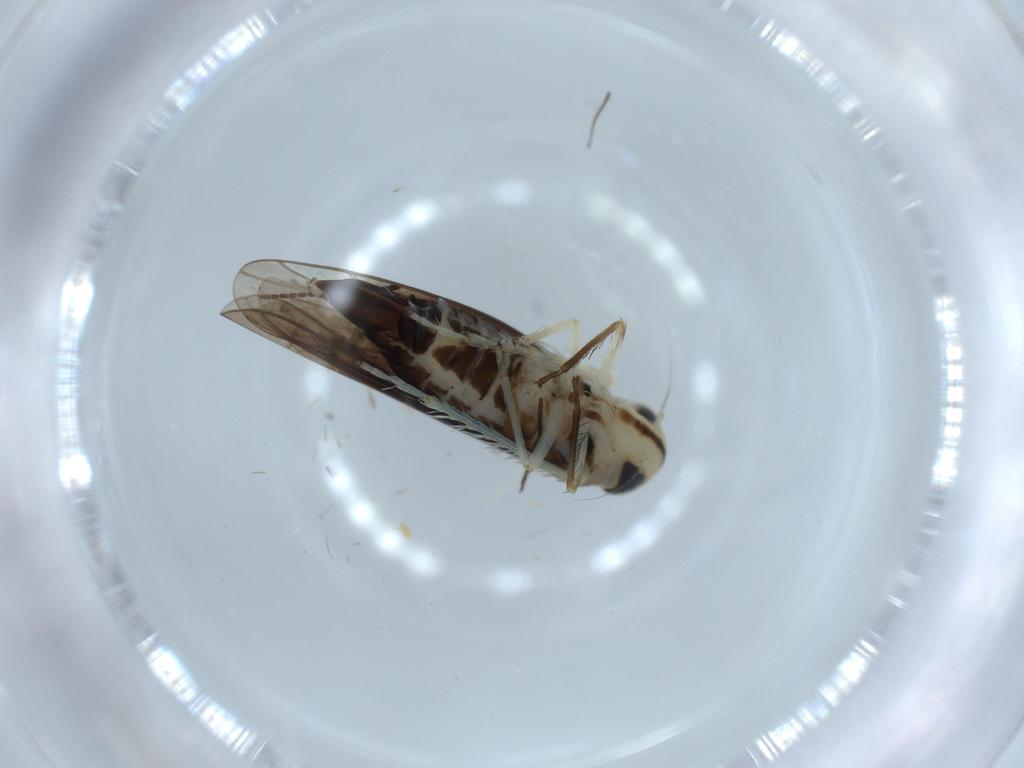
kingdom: Animalia
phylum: Arthropoda
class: Insecta
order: Hemiptera
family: Cicadellidae
